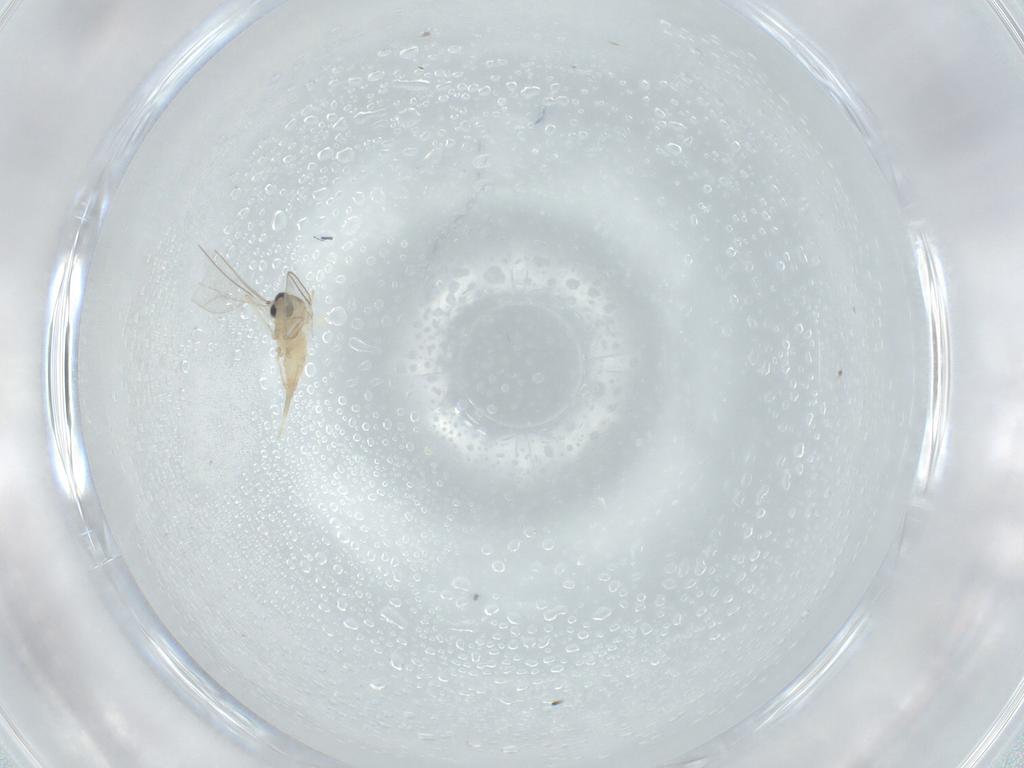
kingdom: Animalia
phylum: Arthropoda
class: Insecta
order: Diptera
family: Cecidomyiidae
